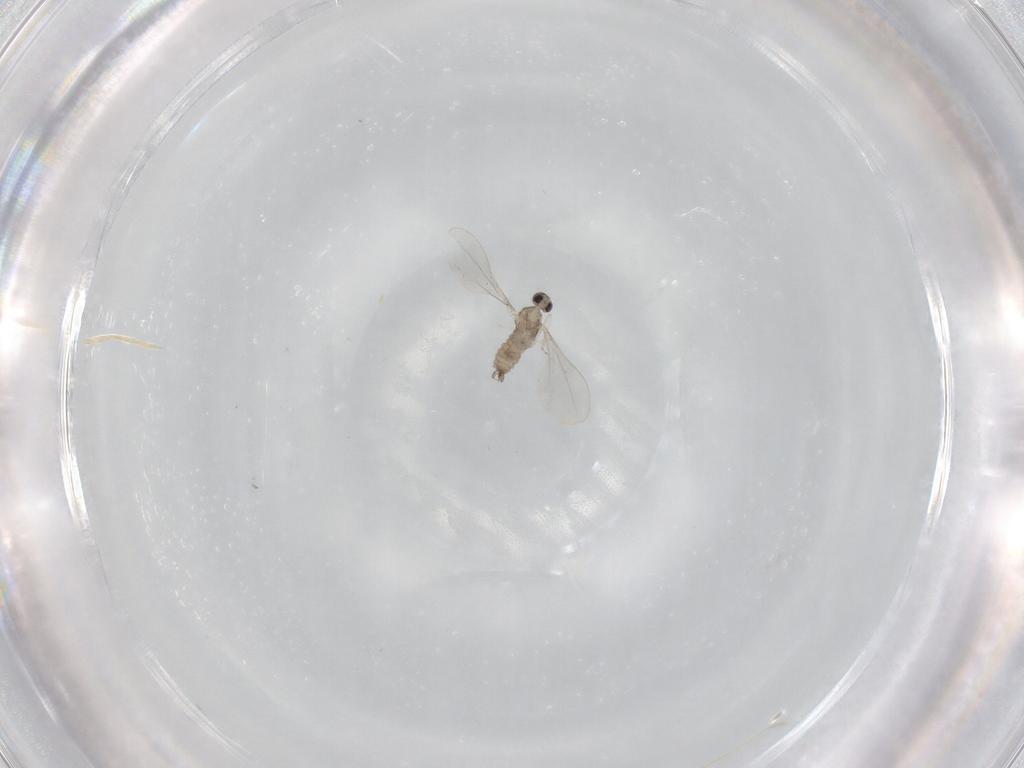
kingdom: Animalia
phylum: Arthropoda
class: Insecta
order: Diptera
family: Cecidomyiidae
